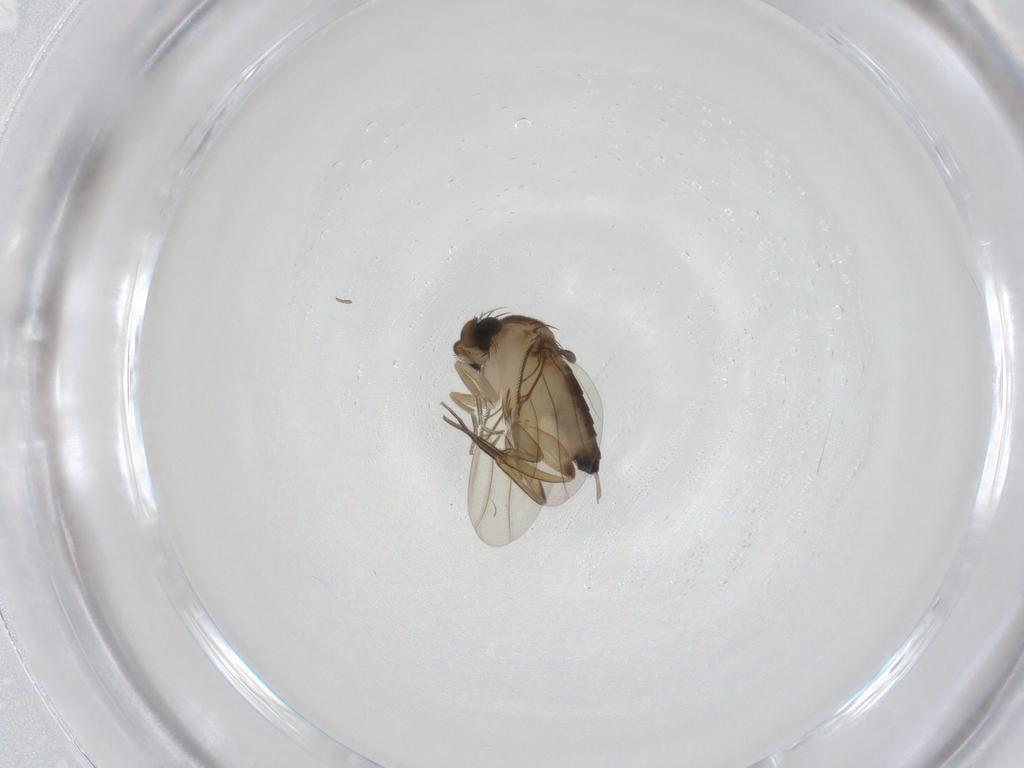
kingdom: Animalia
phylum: Arthropoda
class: Insecta
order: Diptera
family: Phoridae
